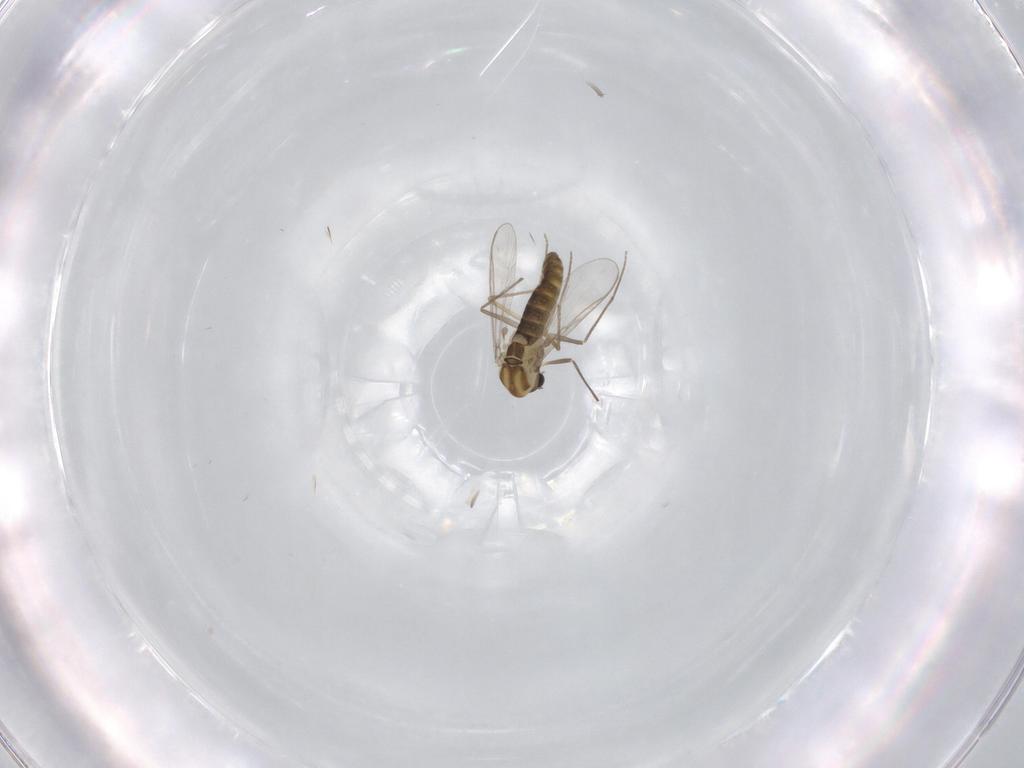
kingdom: Animalia
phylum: Arthropoda
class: Insecta
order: Diptera
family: Chironomidae
